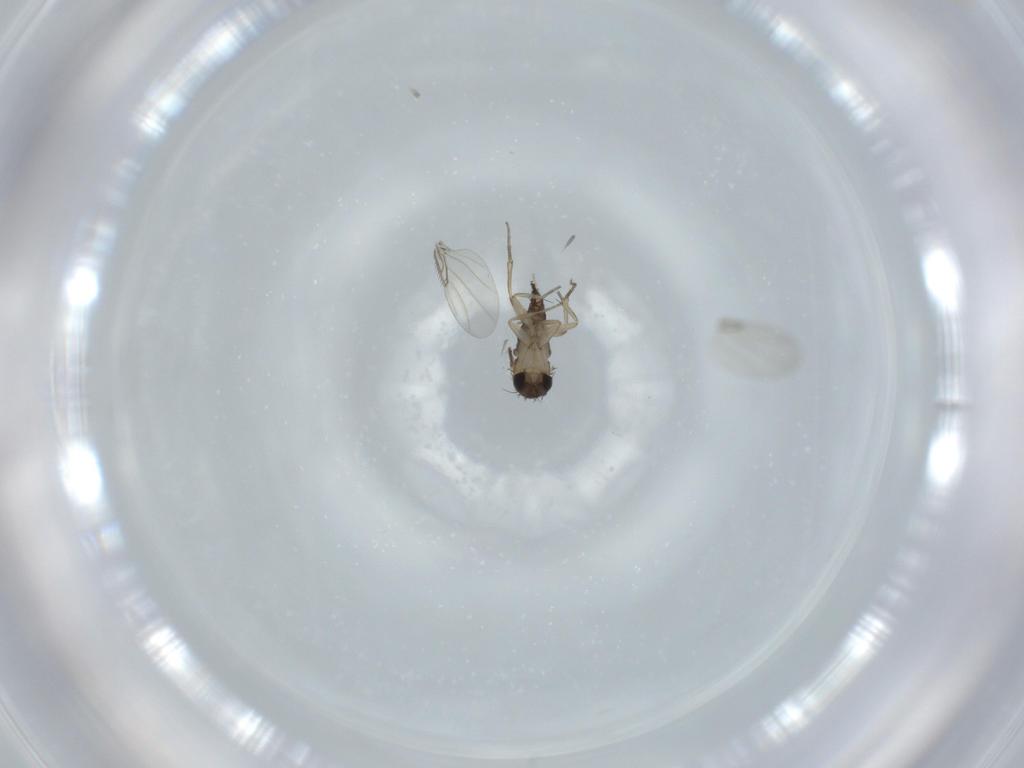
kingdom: Animalia
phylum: Arthropoda
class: Insecta
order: Diptera
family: Phoridae
